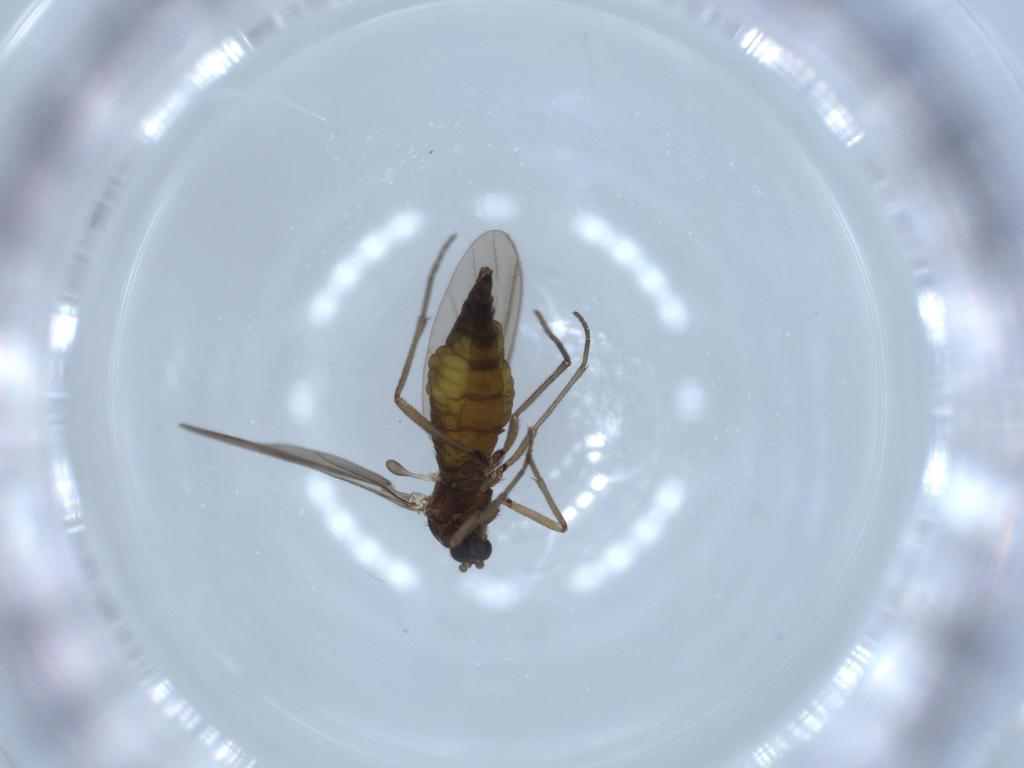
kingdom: Animalia
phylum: Arthropoda
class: Insecta
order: Diptera
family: Sciaridae
